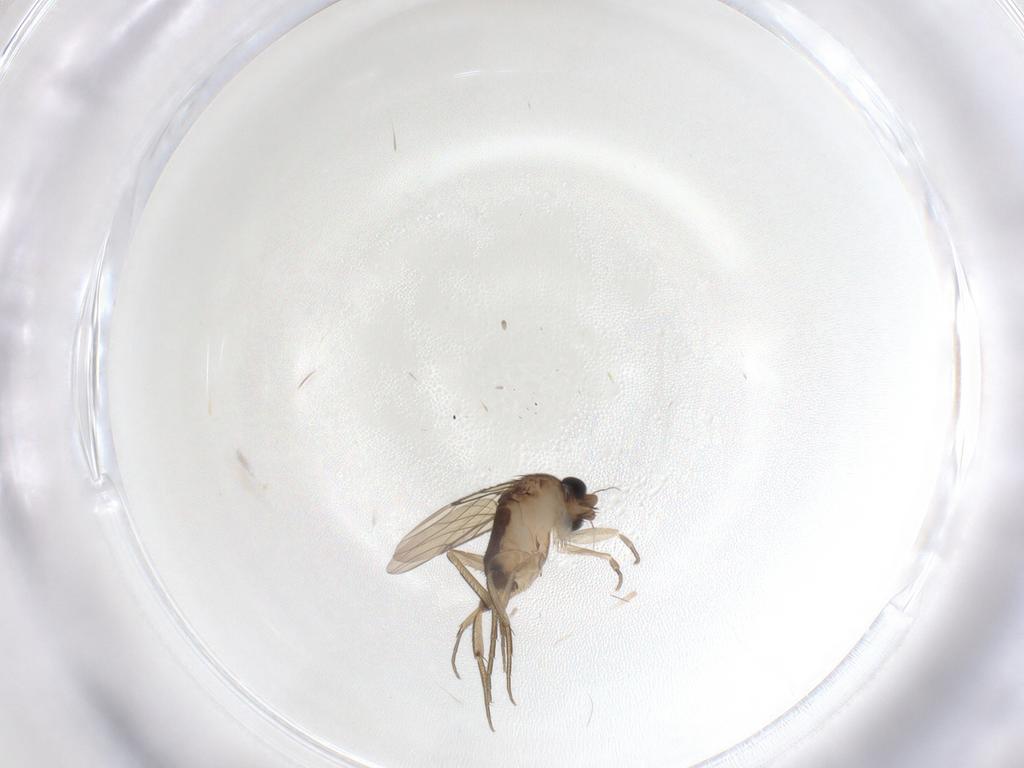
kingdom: Animalia
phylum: Arthropoda
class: Insecta
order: Diptera
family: Phoridae
